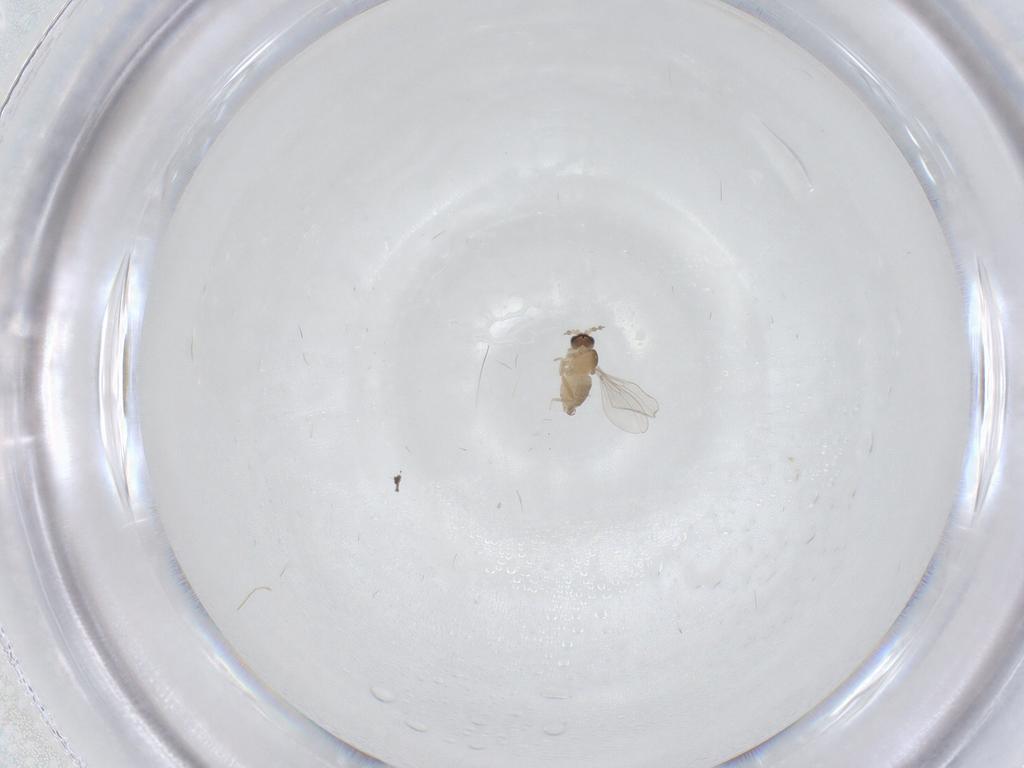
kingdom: Animalia
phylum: Arthropoda
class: Insecta
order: Diptera
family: Cecidomyiidae
